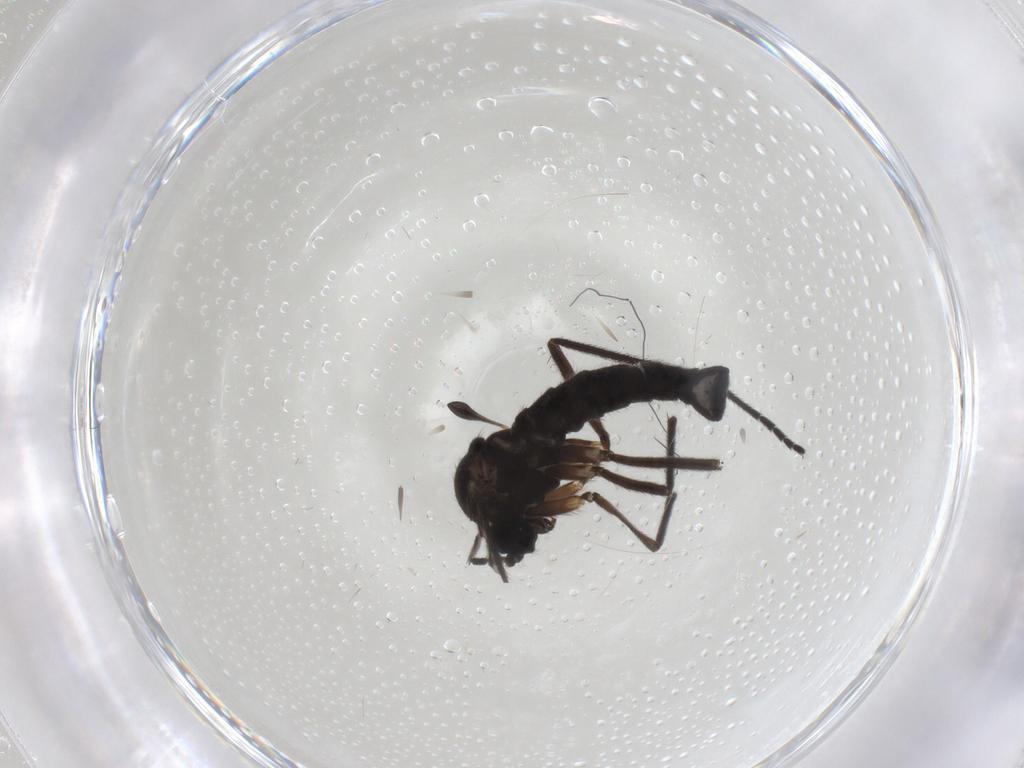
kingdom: Animalia
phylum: Arthropoda
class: Insecta
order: Diptera
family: Sciaridae
